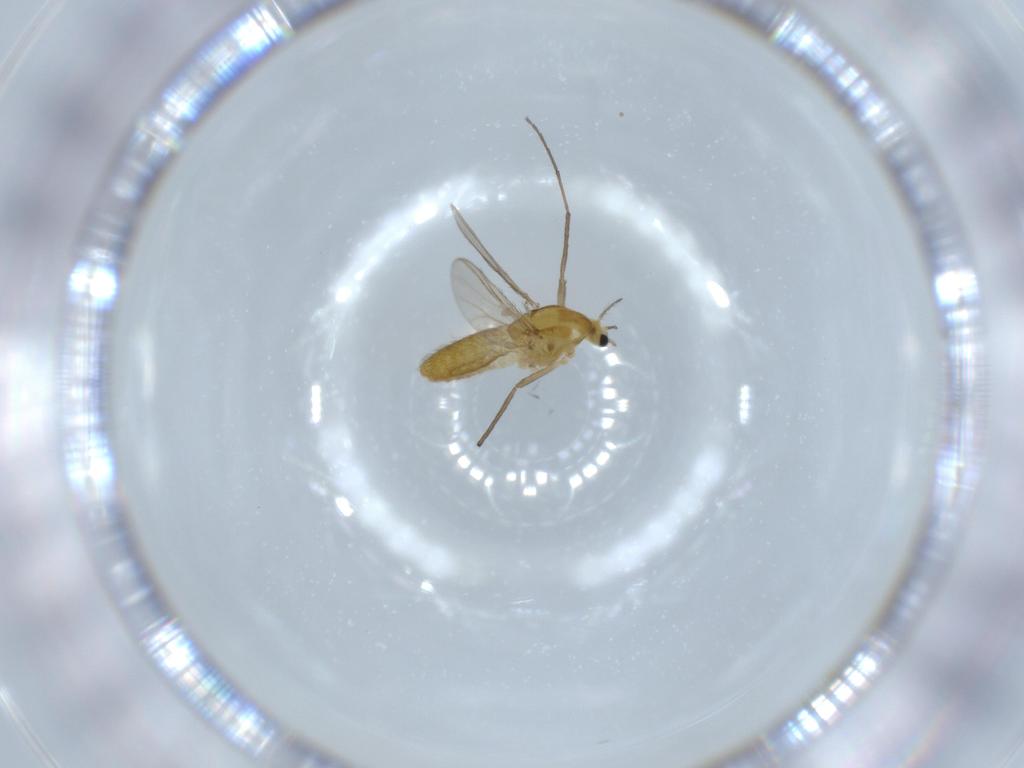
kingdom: Animalia
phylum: Arthropoda
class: Insecta
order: Diptera
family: Chironomidae
